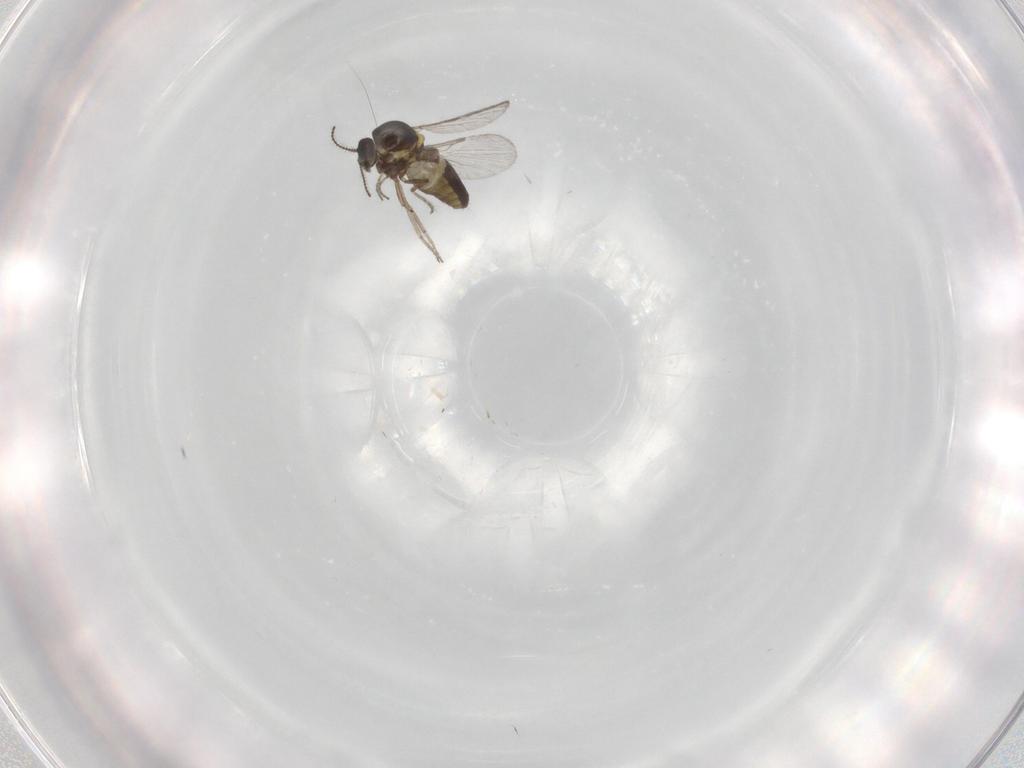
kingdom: Animalia
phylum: Arthropoda
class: Insecta
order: Diptera
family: Ceratopogonidae
